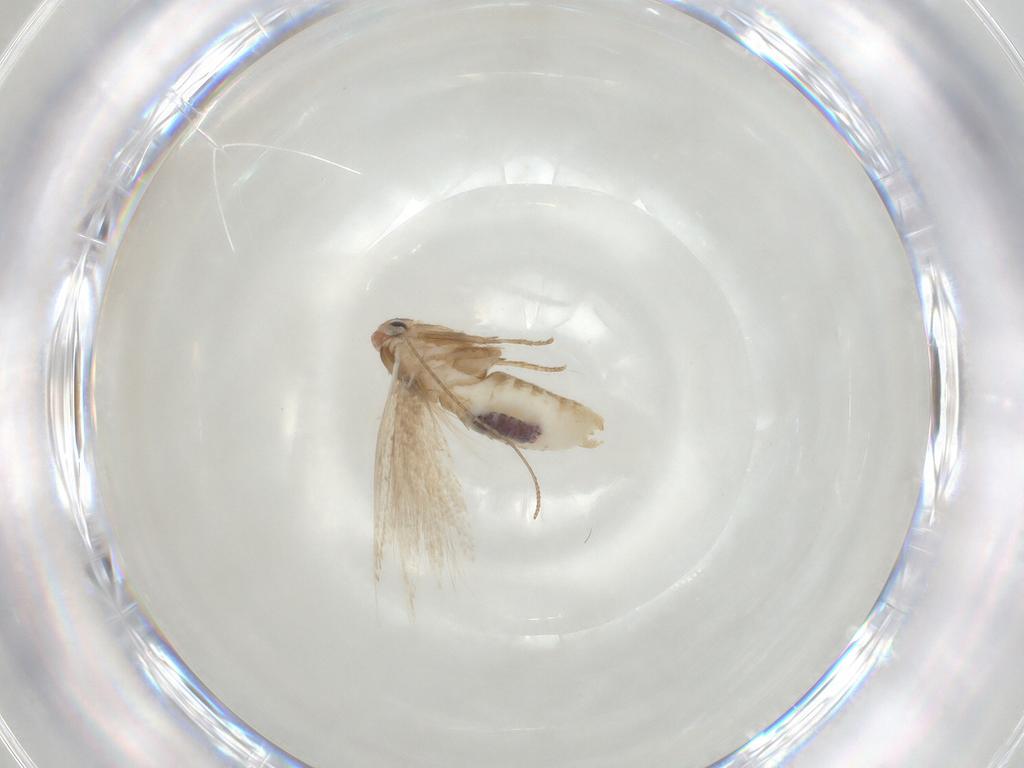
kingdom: Animalia
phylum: Arthropoda
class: Insecta
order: Lepidoptera
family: Bucculatricidae
